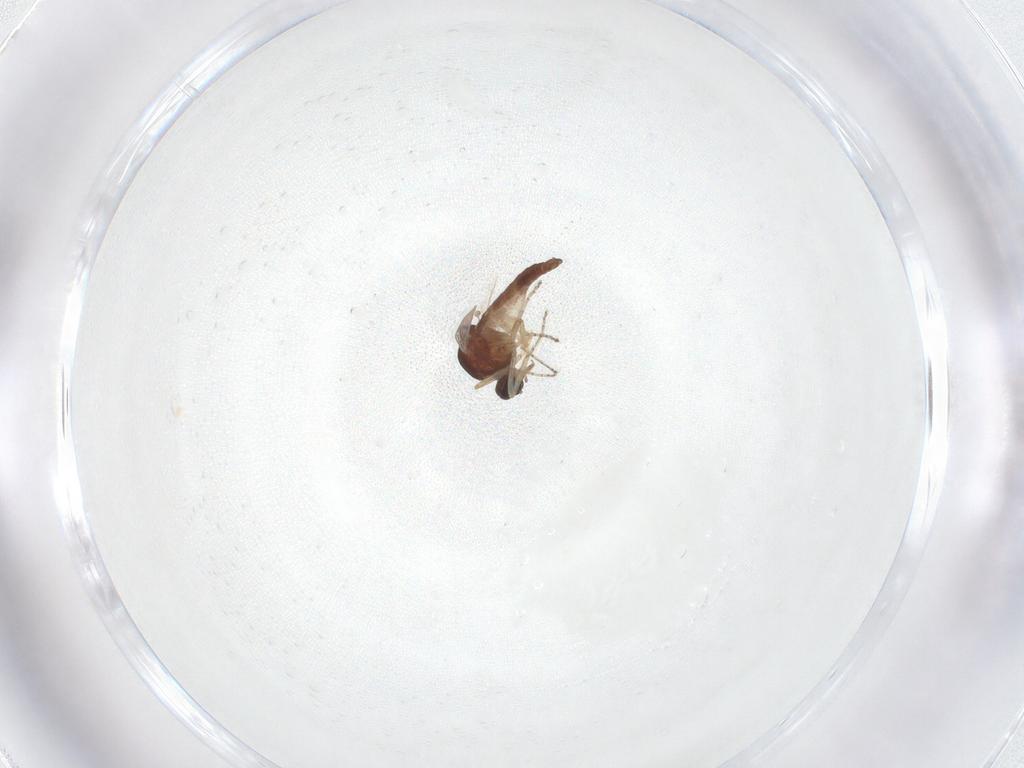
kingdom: Animalia
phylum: Arthropoda
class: Insecta
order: Diptera
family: Ceratopogonidae
